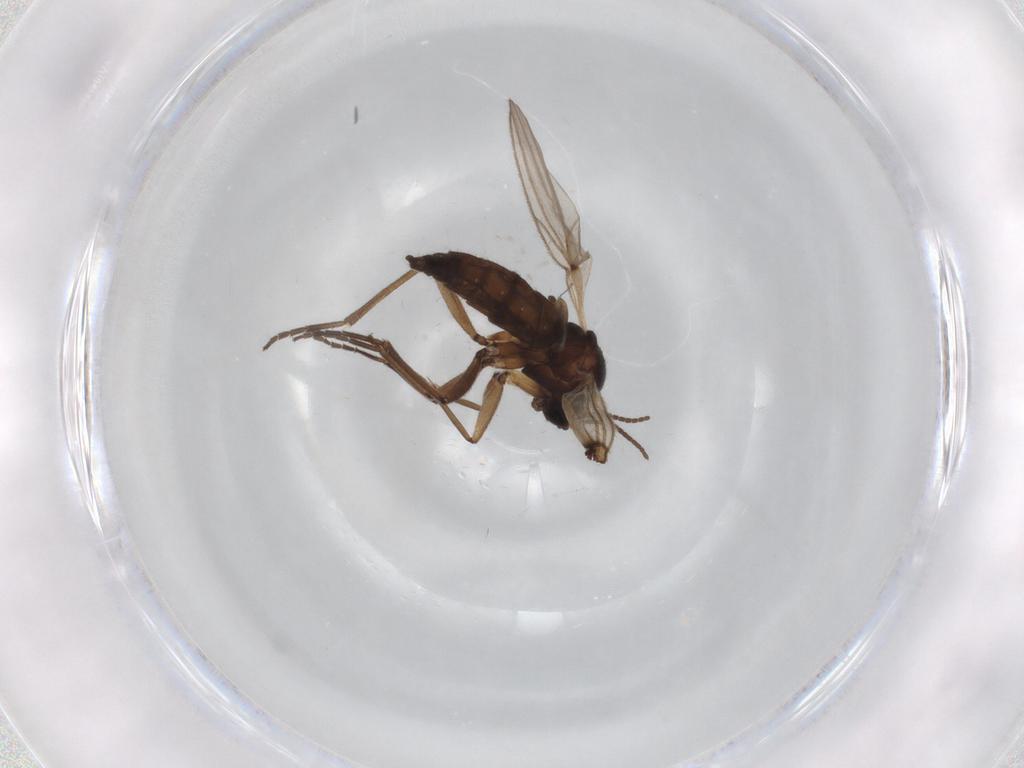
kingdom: Animalia
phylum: Arthropoda
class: Insecta
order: Diptera
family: Sciaridae
